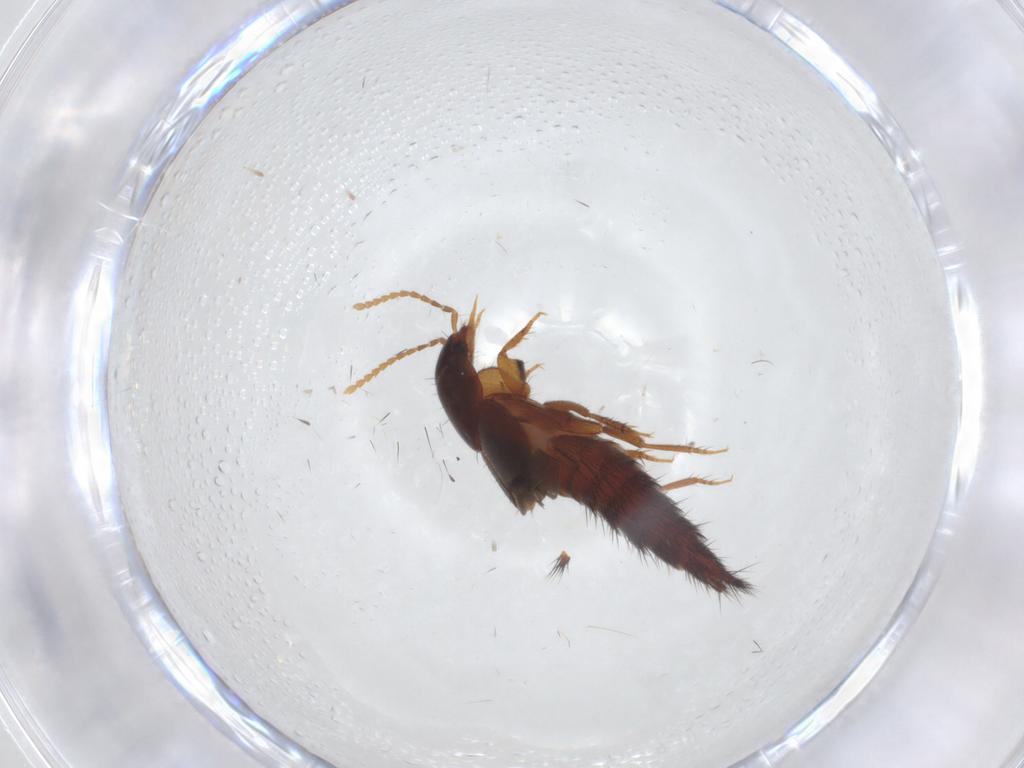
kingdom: Animalia
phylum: Arthropoda
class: Insecta
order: Coleoptera
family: Staphylinidae
